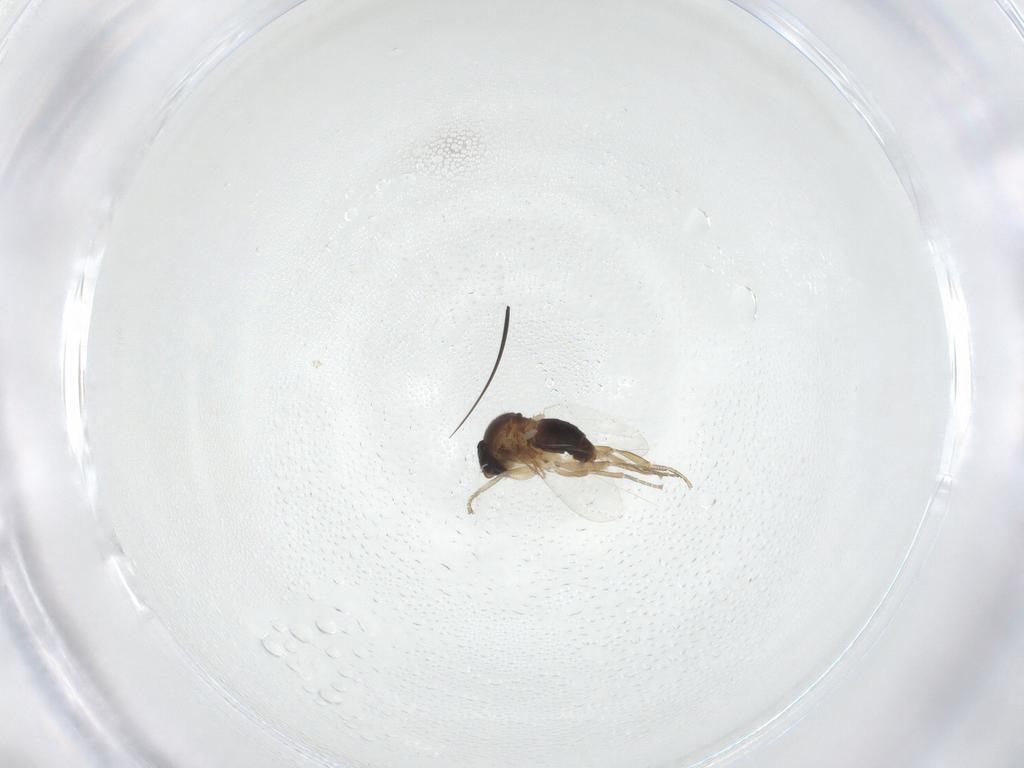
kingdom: Animalia
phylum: Arthropoda
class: Insecta
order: Diptera
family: Phoridae
